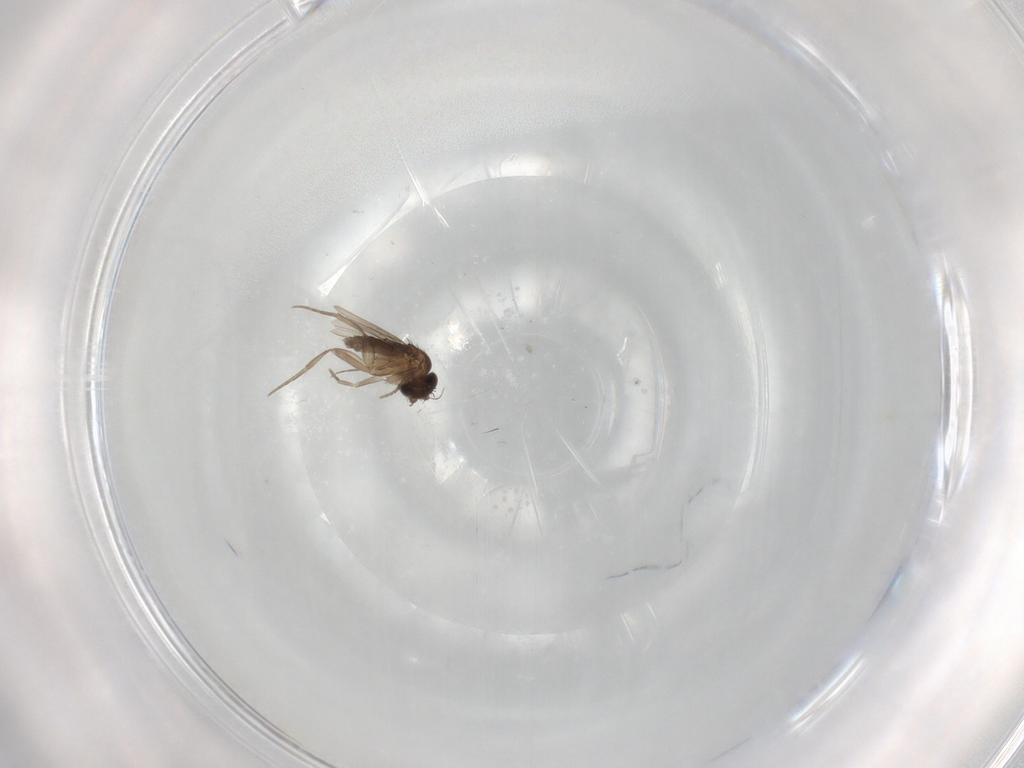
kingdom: Animalia
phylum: Arthropoda
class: Insecta
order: Diptera
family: Phoridae
